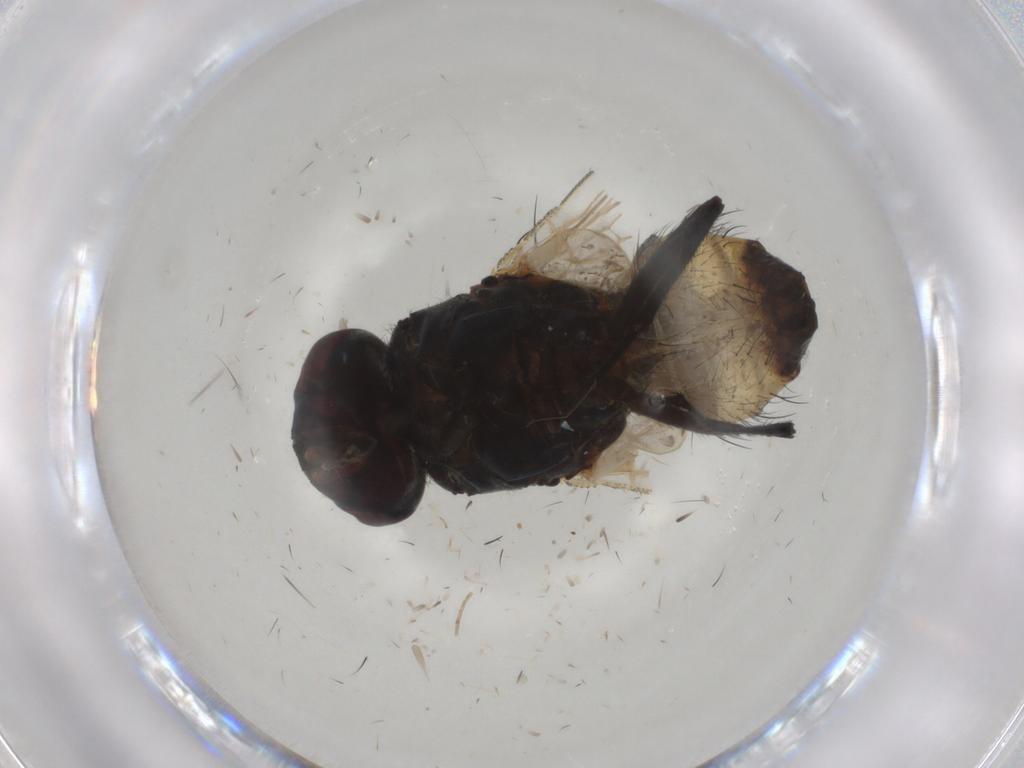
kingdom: Animalia
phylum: Arthropoda
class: Insecta
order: Diptera
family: Muscidae
